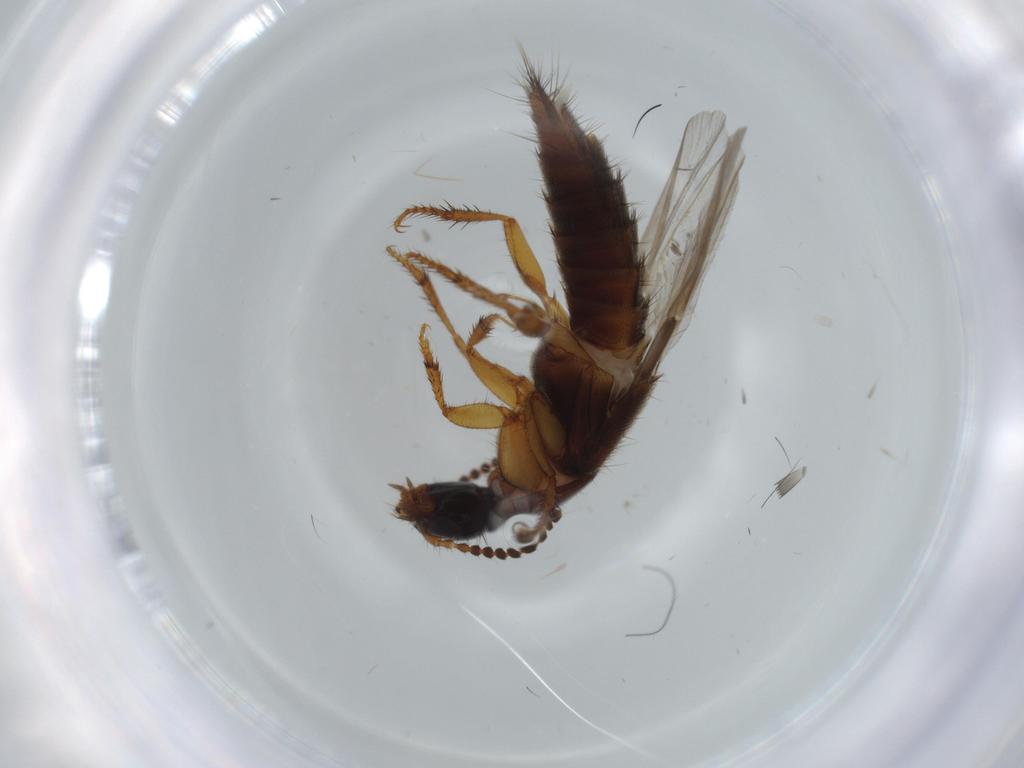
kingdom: Animalia
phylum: Arthropoda
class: Insecta
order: Coleoptera
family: Staphylinidae
